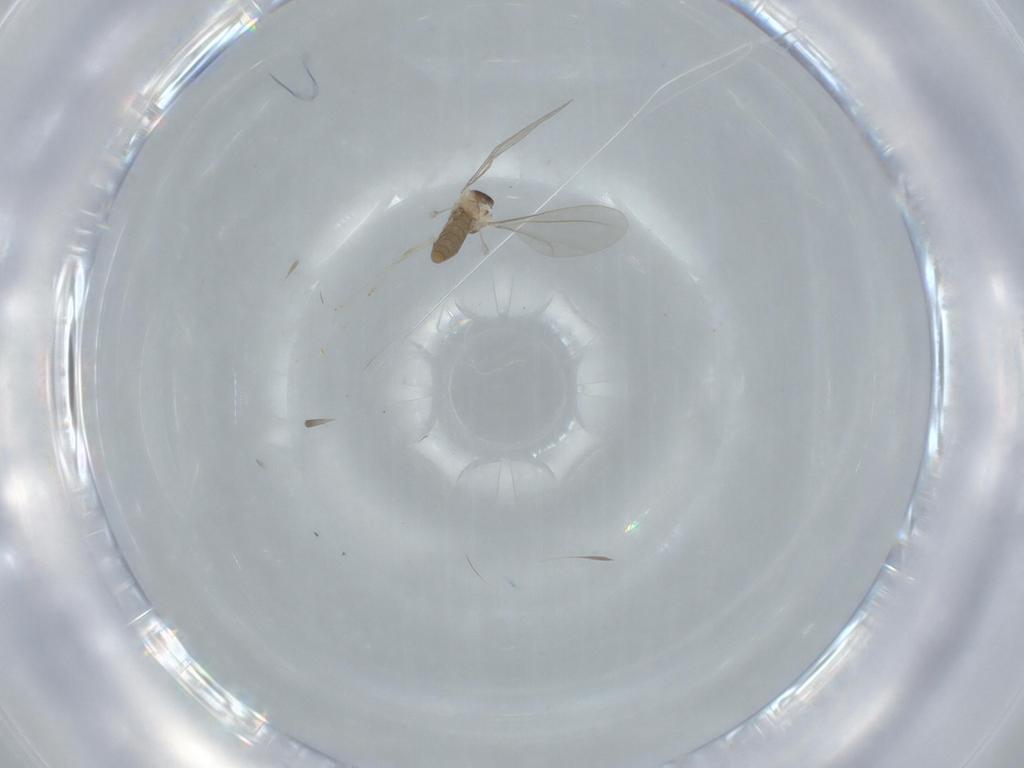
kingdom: Animalia
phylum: Arthropoda
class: Insecta
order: Diptera
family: Cecidomyiidae
